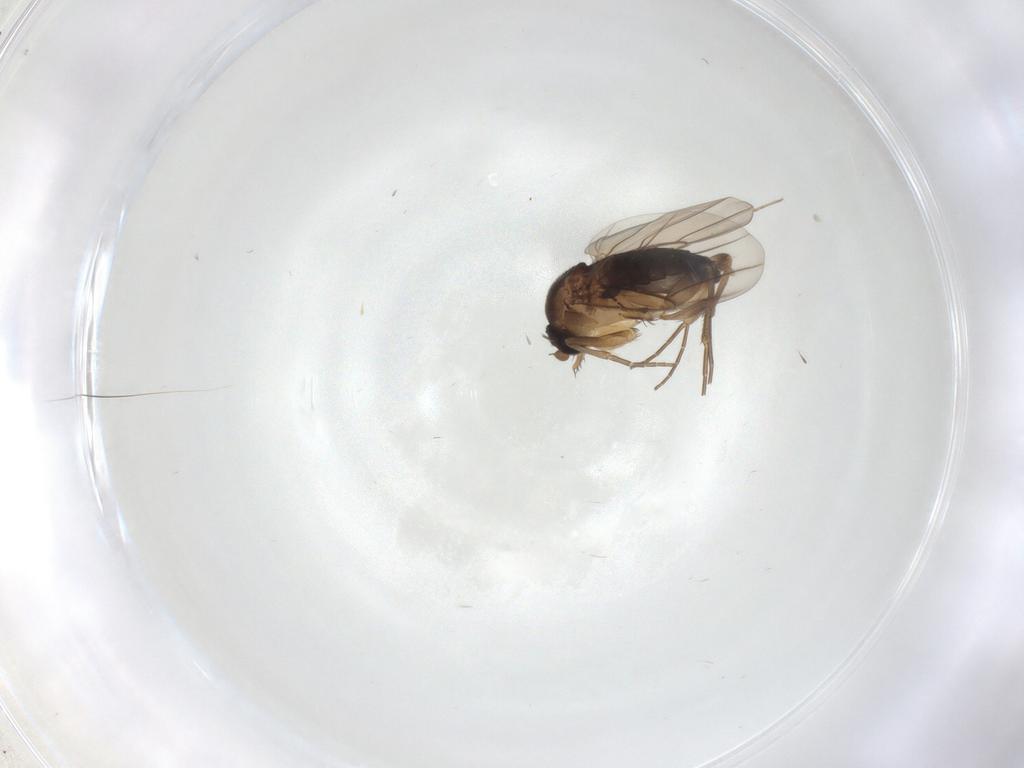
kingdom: Animalia
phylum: Arthropoda
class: Insecta
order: Diptera
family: Phoridae
